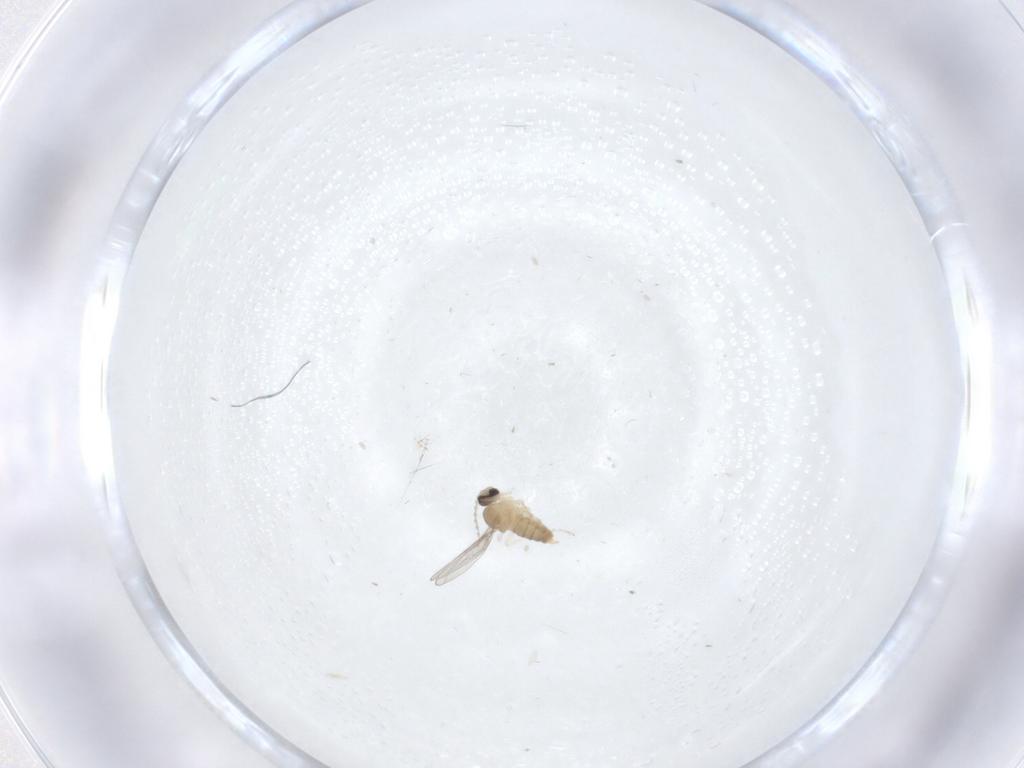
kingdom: Animalia
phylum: Arthropoda
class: Insecta
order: Diptera
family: Cecidomyiidae
